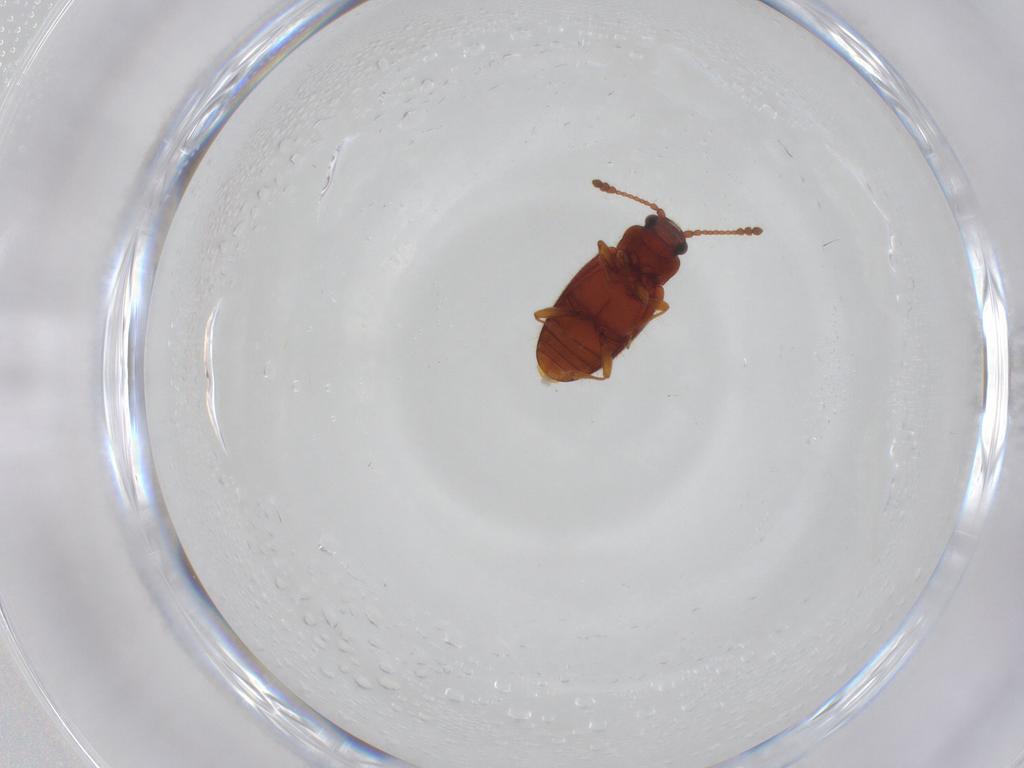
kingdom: Animalia
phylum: Arthropoda
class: Insecta
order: Coleoptera
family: Cryptophagidae
